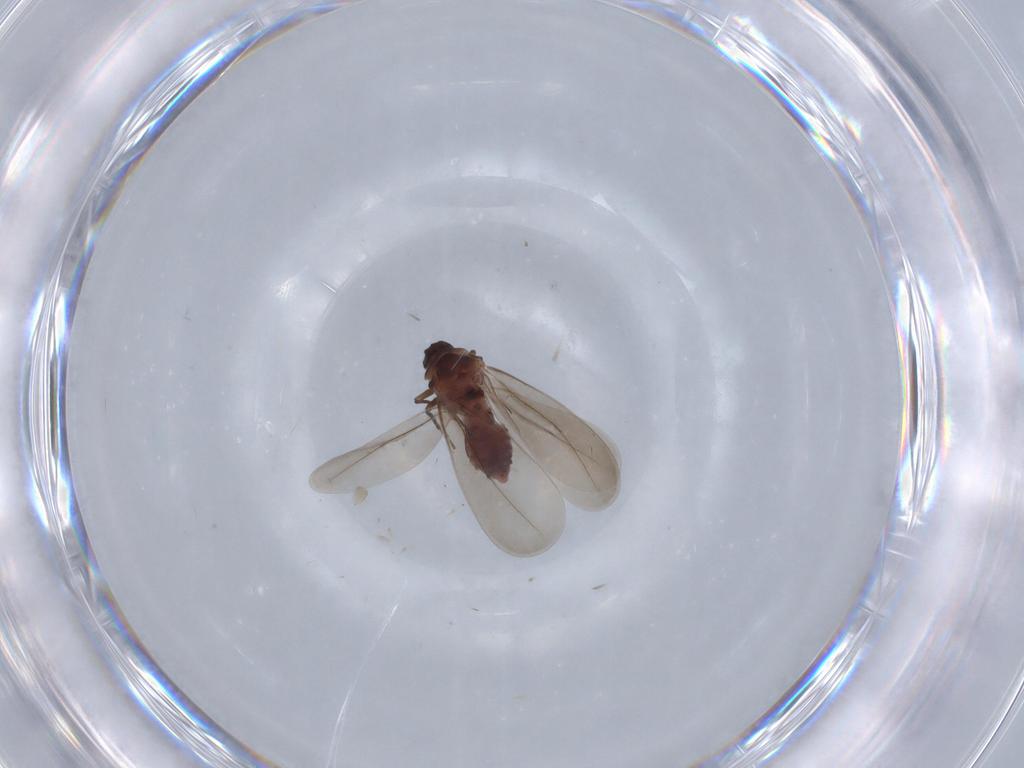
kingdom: Animalia
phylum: Arthropoda
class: Insecta
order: Hemiptera
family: Aleyrodidae
